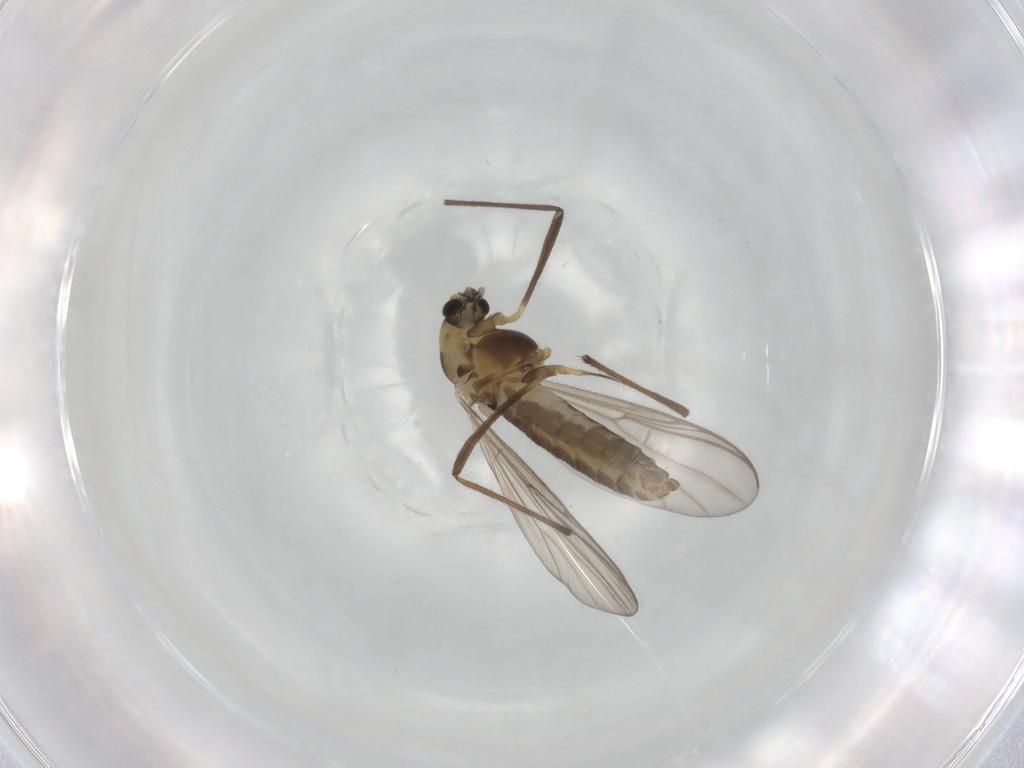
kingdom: Animalia
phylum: Arthropoda
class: Insecta
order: Diptera
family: Chironomidae
